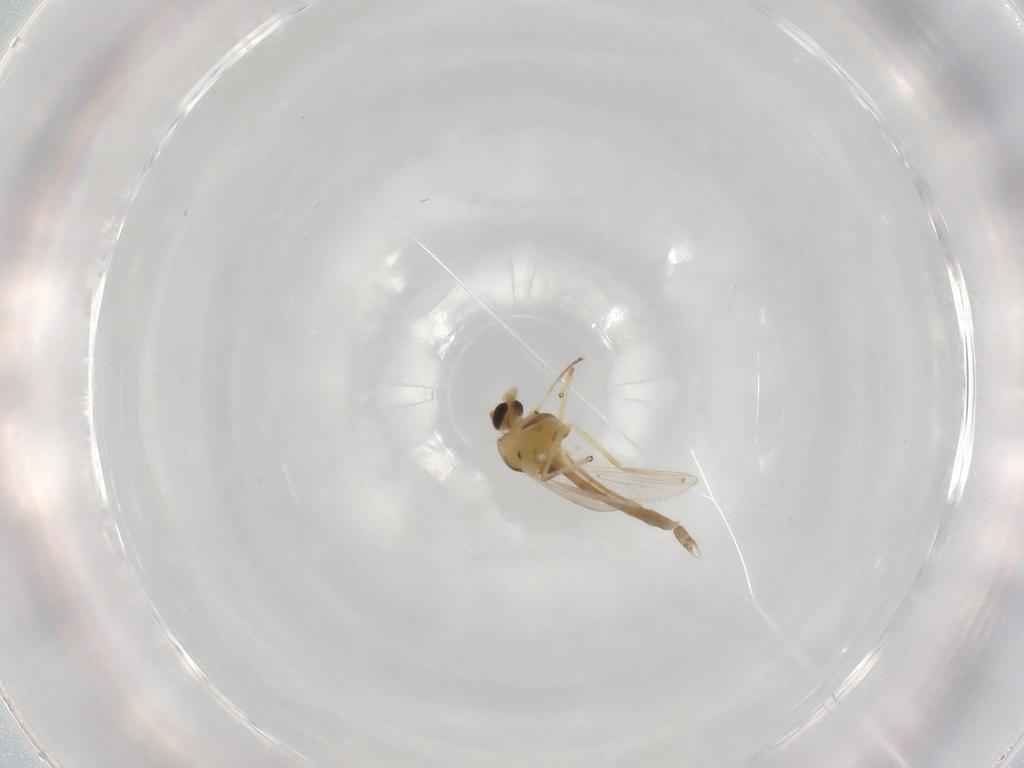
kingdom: Animalia
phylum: Arthropoda
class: Insecta
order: Diptera
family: Chironomidae
